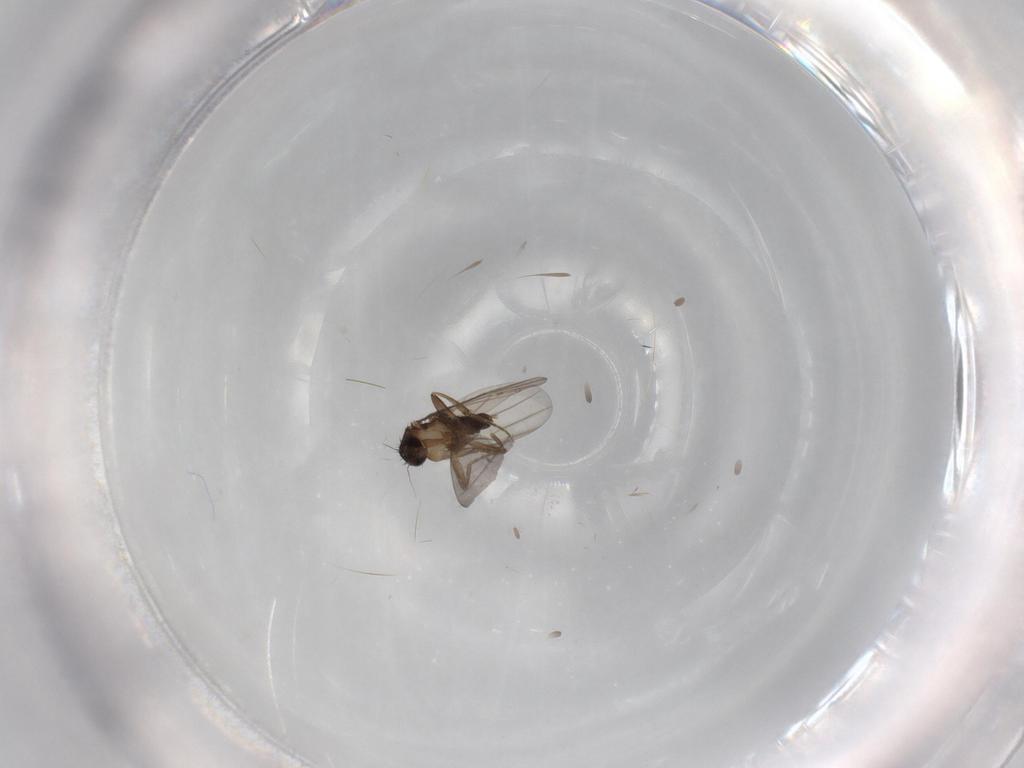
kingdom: Animalia
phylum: Arthropoda
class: Insecta
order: Diptera
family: Phoridae
